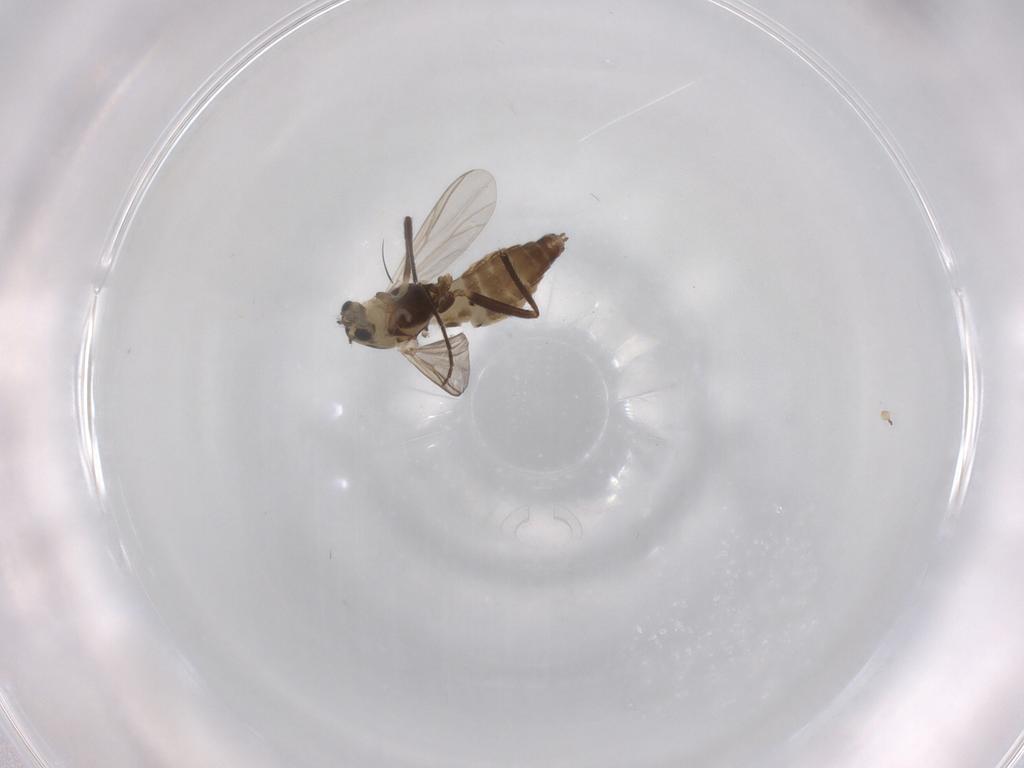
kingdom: Animalia
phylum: Arthropoda
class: Insecta
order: Diptera
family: Chironomidae
